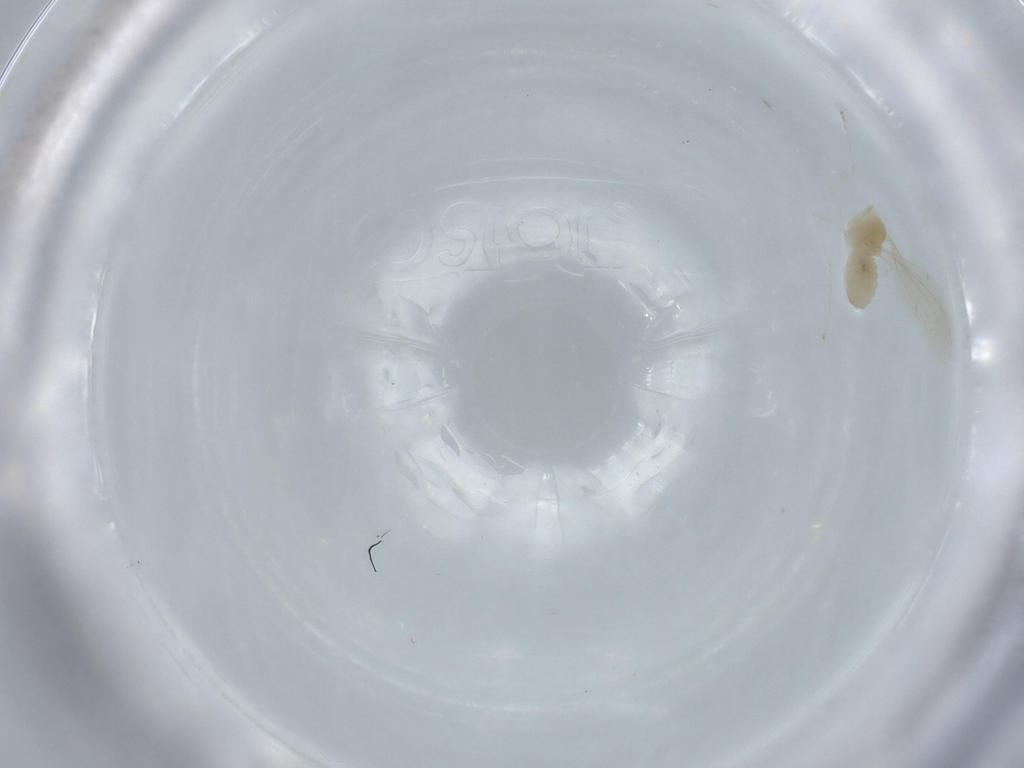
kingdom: Animalia
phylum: Arthropoda
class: Insecta
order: Diptera
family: Cecidomyiidae
